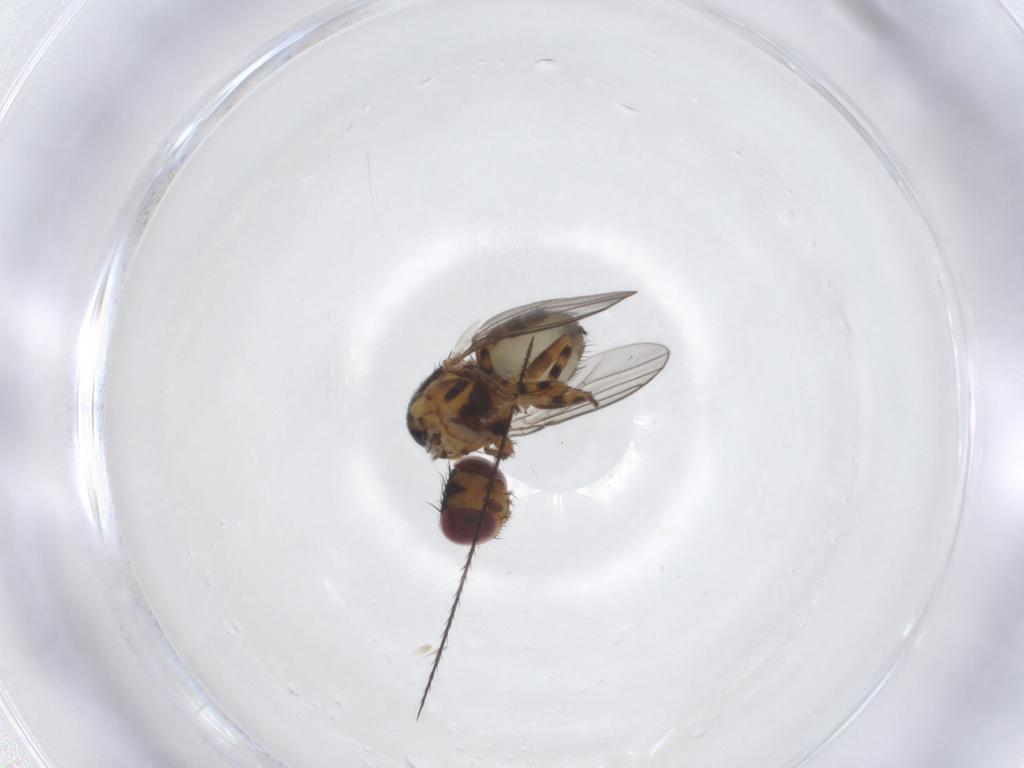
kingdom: Animalia
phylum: Arthropoda
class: Insecta
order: Diptera
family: Chloropidae
